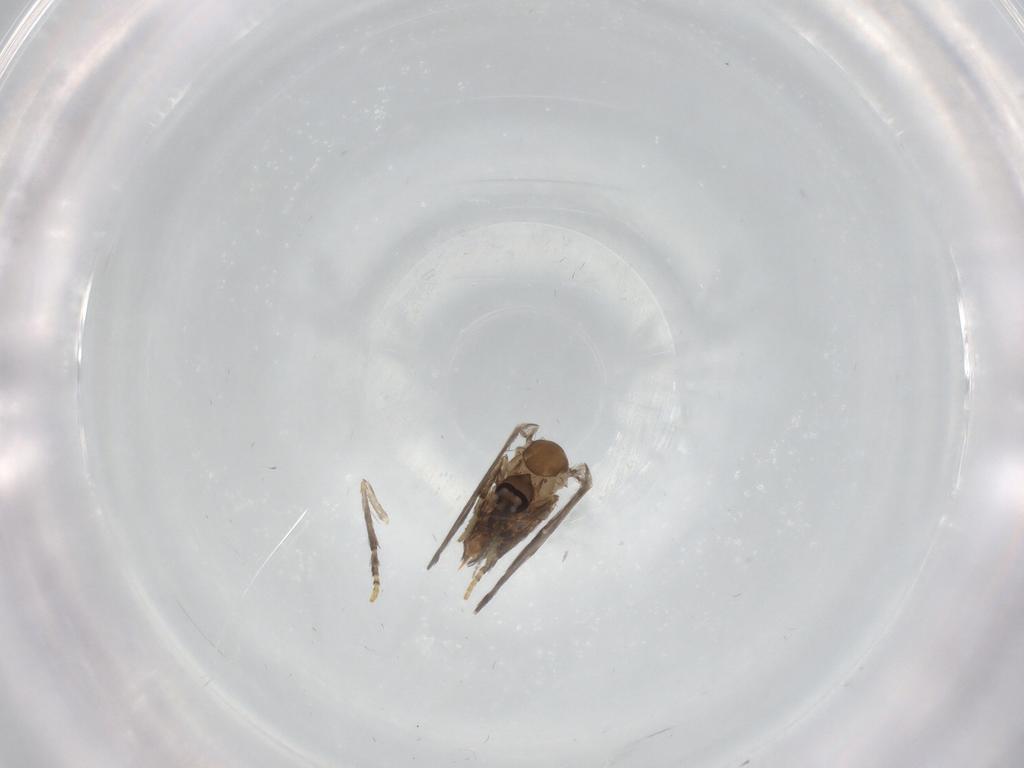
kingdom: Animalia
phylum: Arthropoda
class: Insecta
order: Diptera
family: Psychodidae
